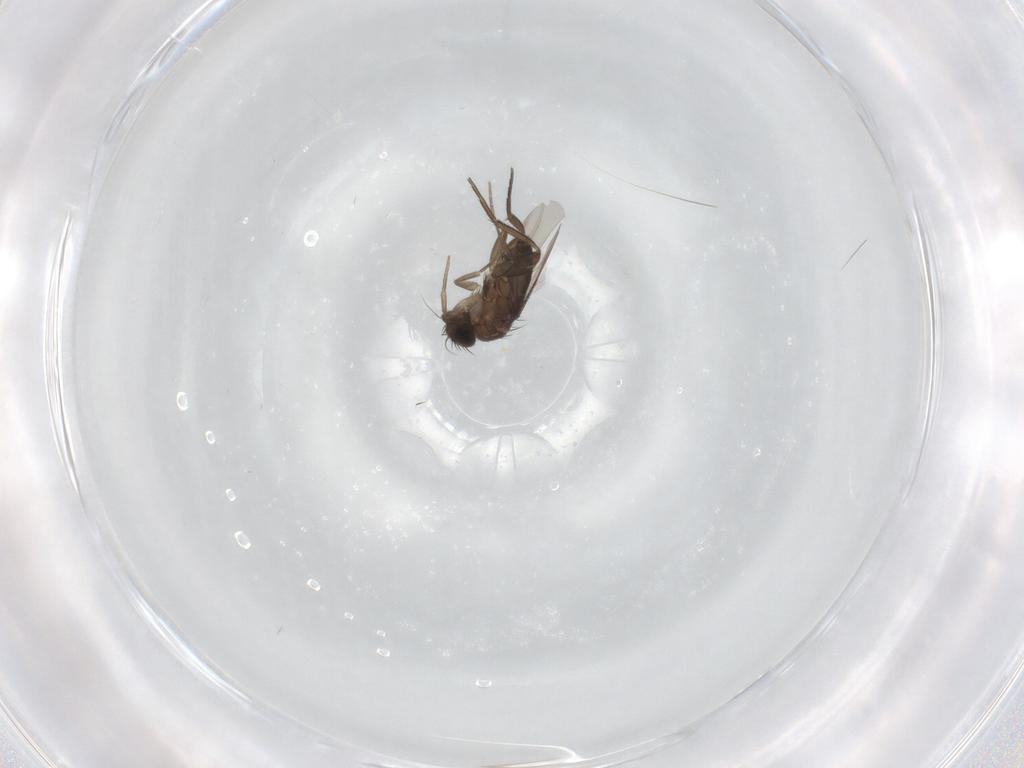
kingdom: Animalia
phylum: Arthropoda
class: Insecta
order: Diptera
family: Phoridae
